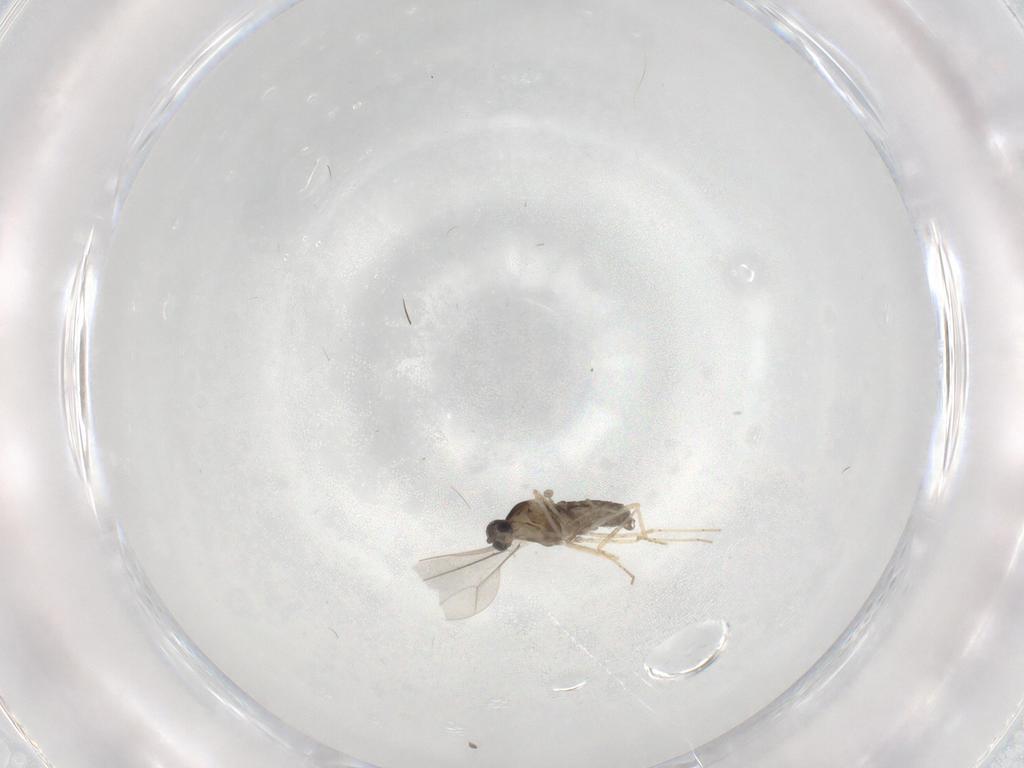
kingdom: Animalia
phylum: Arthropoda
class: Insecta
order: Diptera
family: Cecidomyiidae
